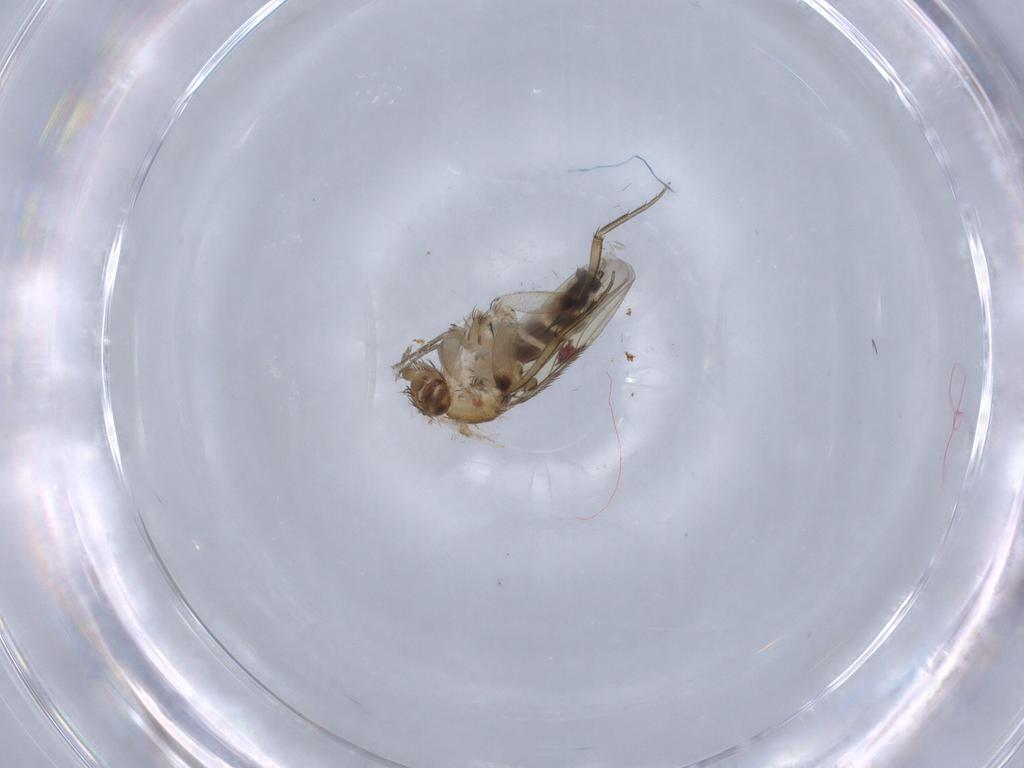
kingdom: Animalia
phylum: Arthropoda
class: Insecta
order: Diptera
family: Phoridae
